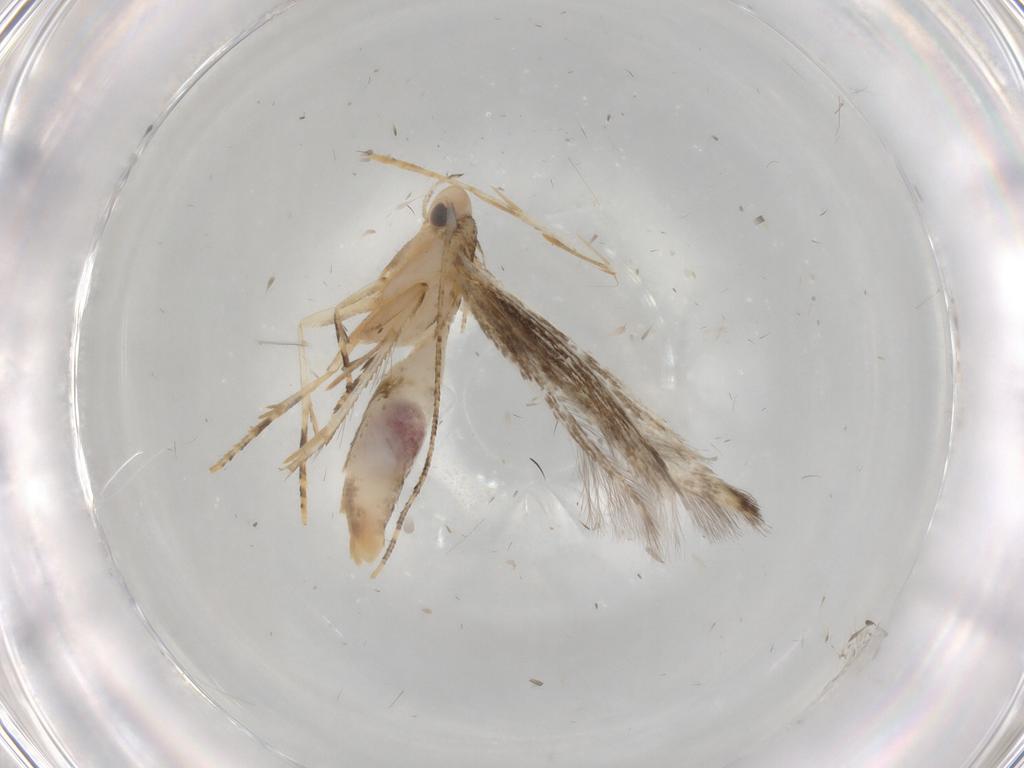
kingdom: Animalia
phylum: Arthropoda
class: Insecta
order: Lepidoptera
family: Gelechiidae
